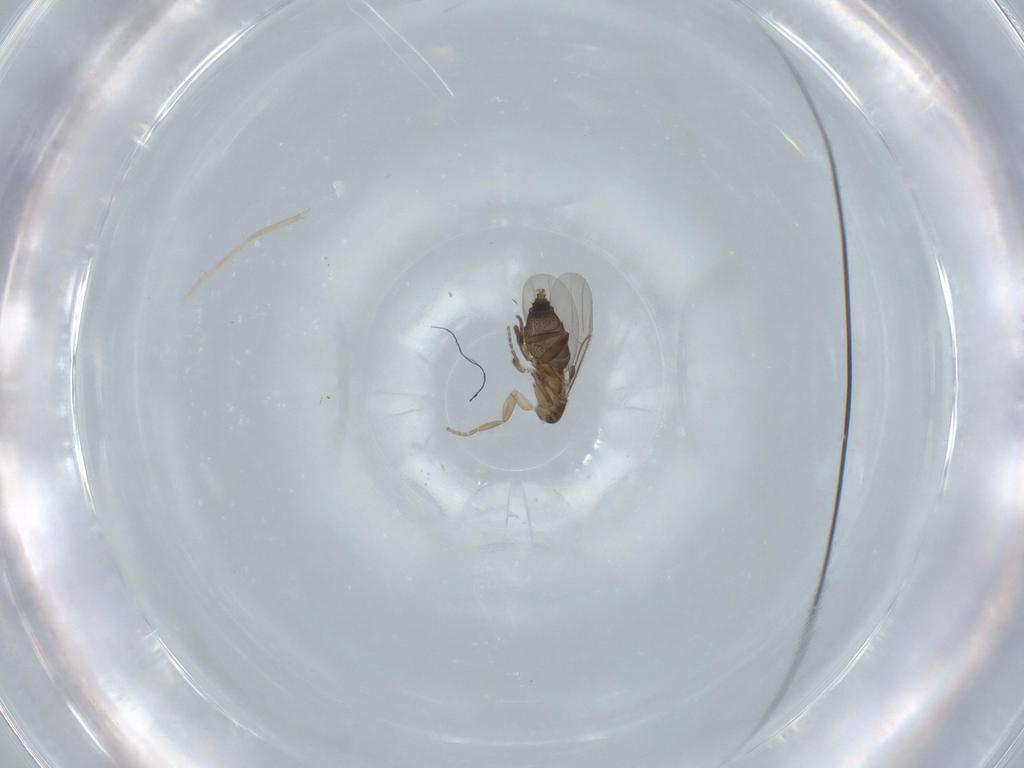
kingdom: Animalia
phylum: Arthropoda
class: Insecta
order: Diptera
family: Phoridae
